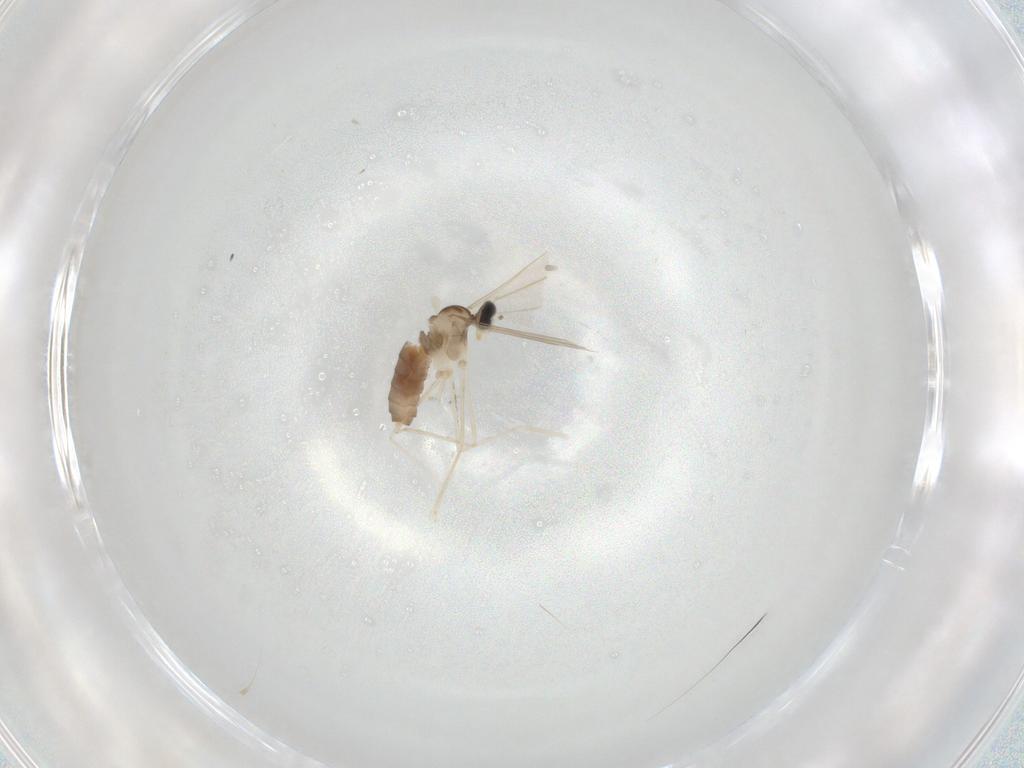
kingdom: Animalia
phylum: Arthropoda
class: Insecta
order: Diptera
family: Cecidomyiidae
